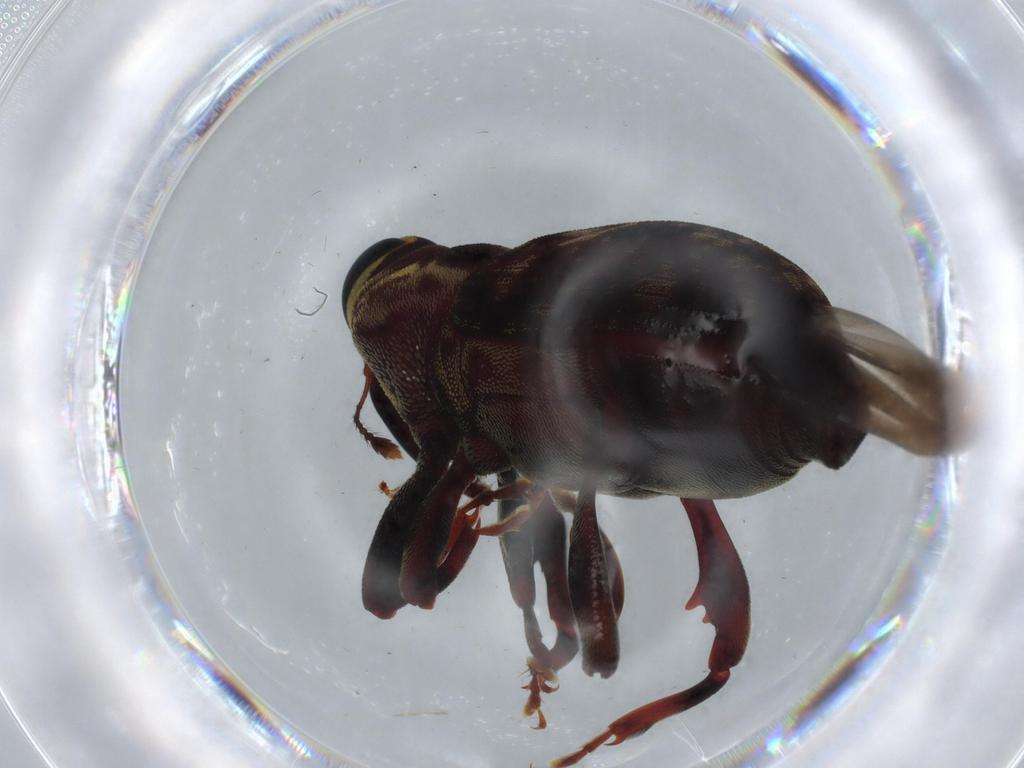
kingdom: Animalia
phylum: Arthropoda
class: Insecta
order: Coleoptera
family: Curculionidae
